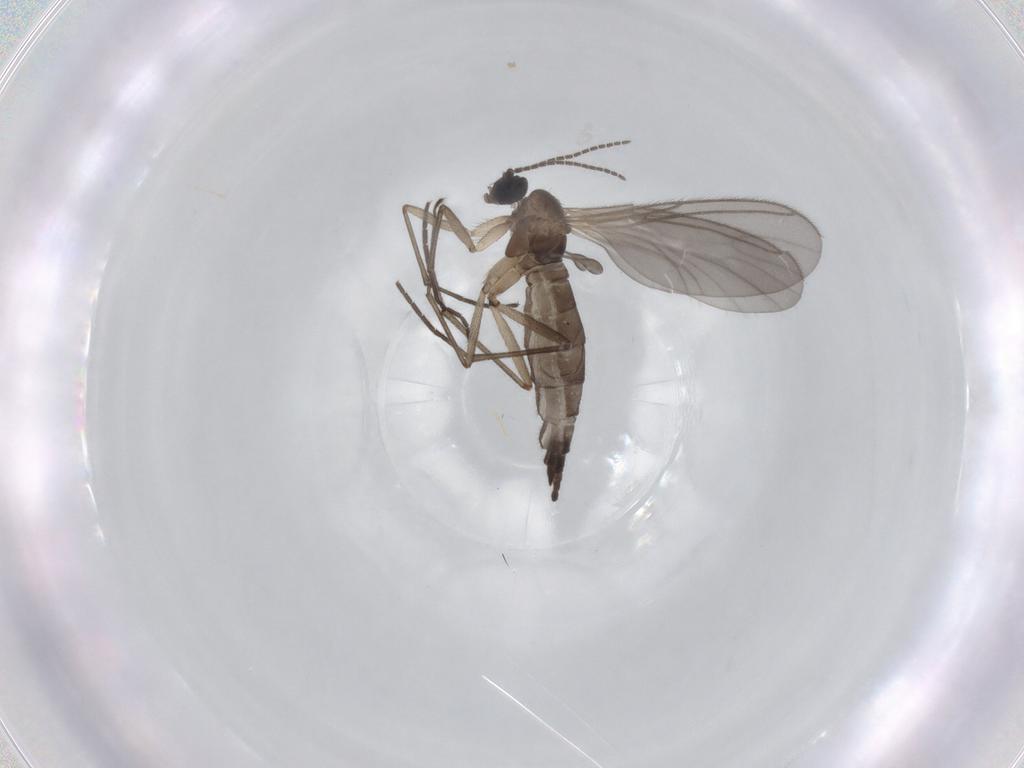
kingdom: Animalia
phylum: Arthropoda
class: Insecta
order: Diptera
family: Sciaridae
